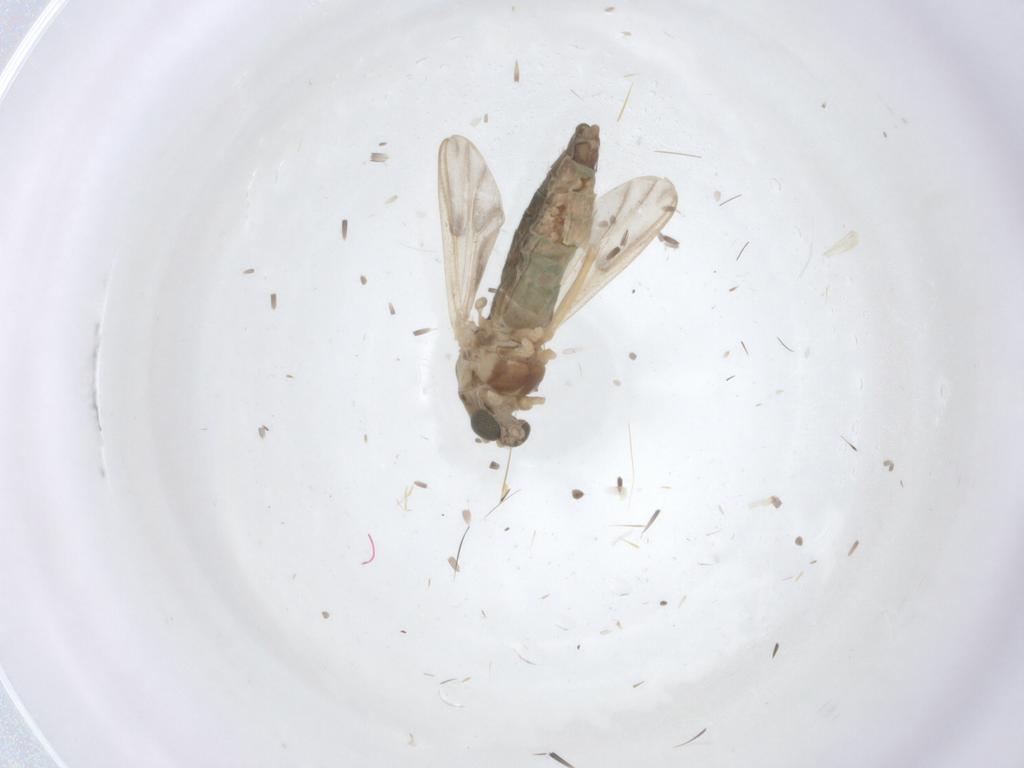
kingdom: Animalia
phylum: Arthropoda
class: Insecta
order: Diptera
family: Chironomidae
